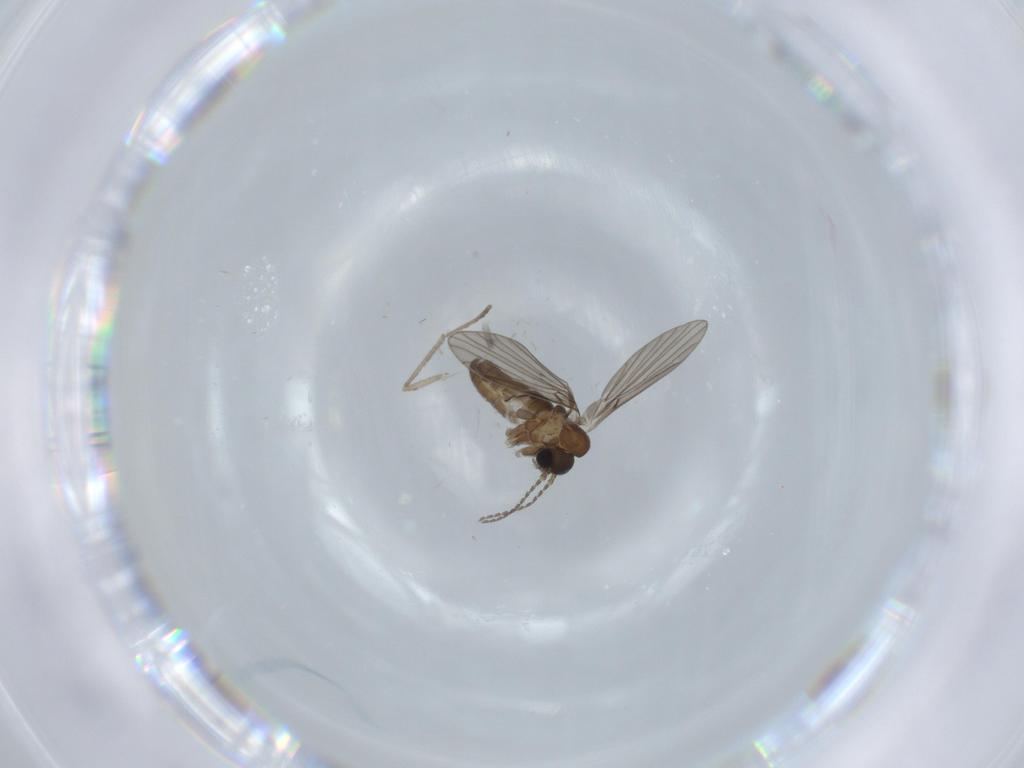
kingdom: Animalia
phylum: Arthropoda
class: Insecta
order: Diptera
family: Psychodidae
